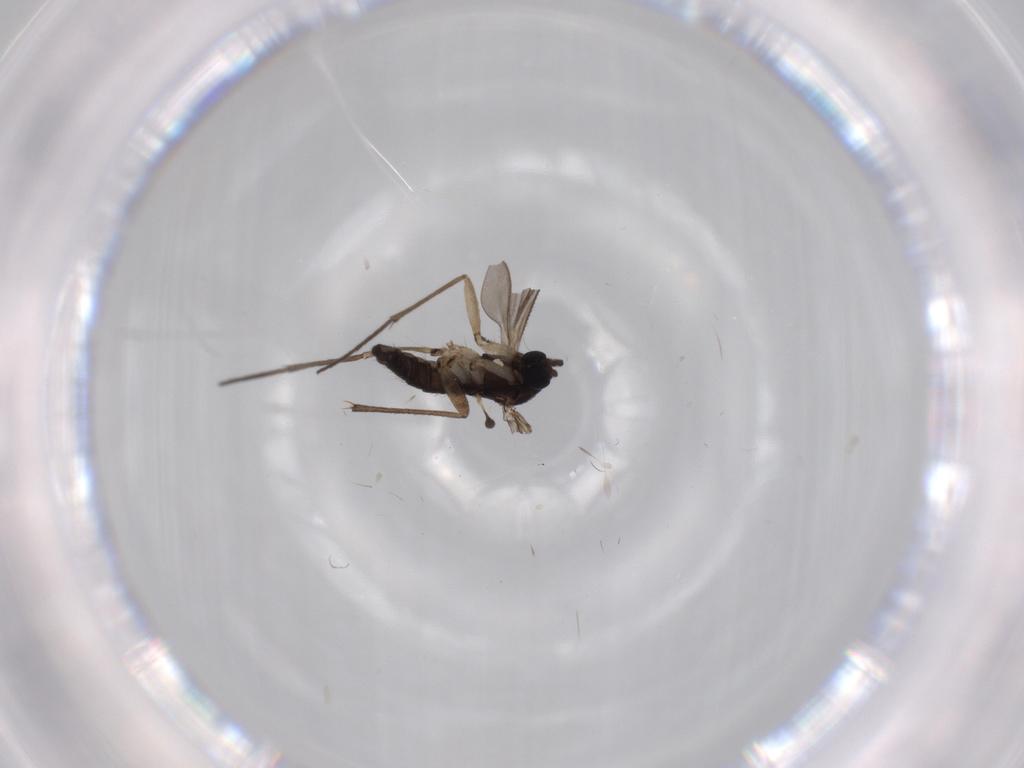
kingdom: Animalia
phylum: Arthropoda
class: Insecta
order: Diptera
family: Sciaridae
